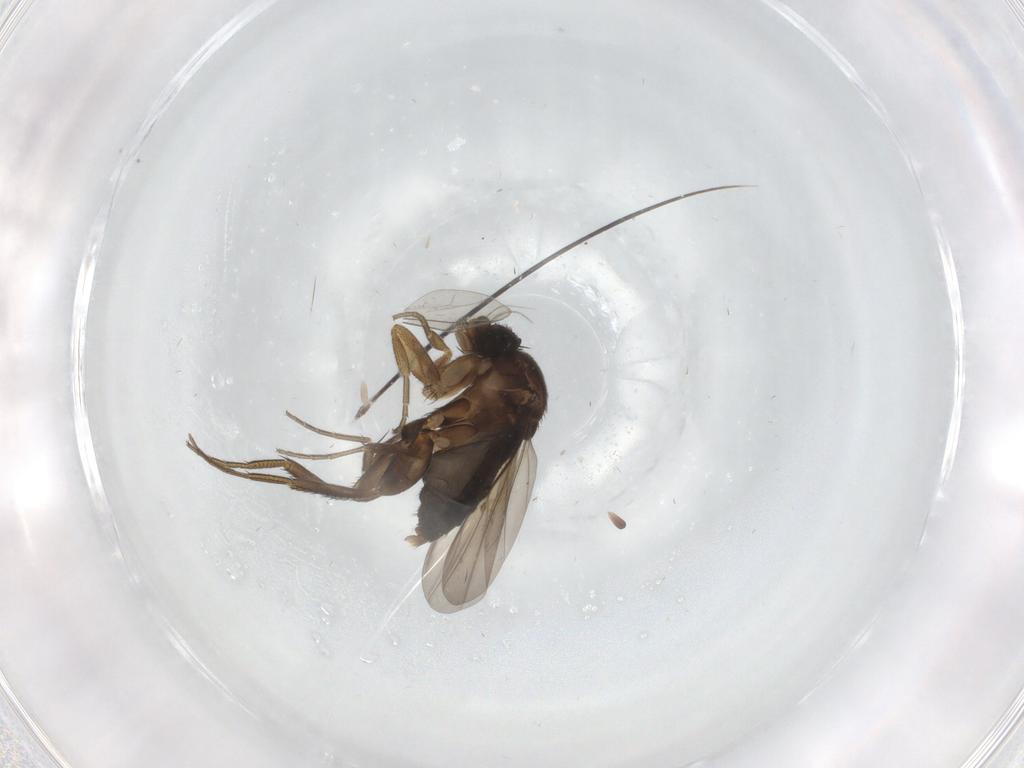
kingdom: Animalia
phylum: Arthropoda
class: Insecta
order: Diptera
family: Phoridae
